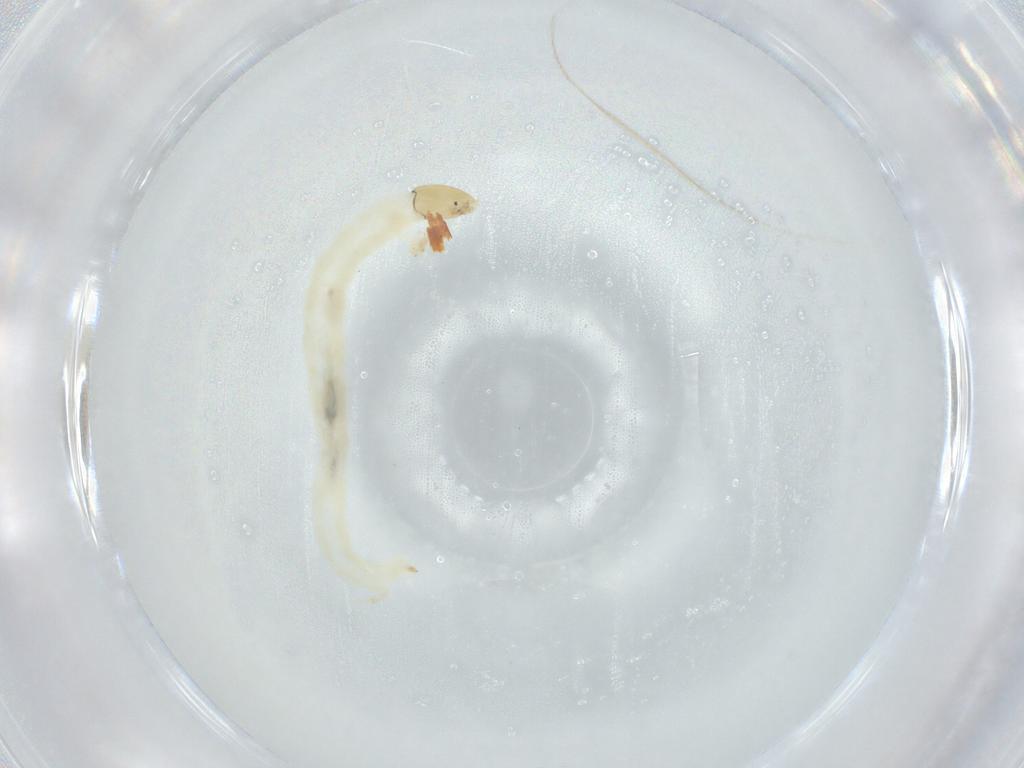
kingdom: Animalia
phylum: Arthropoda
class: Insecta
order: Diptera
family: Chironomidae
